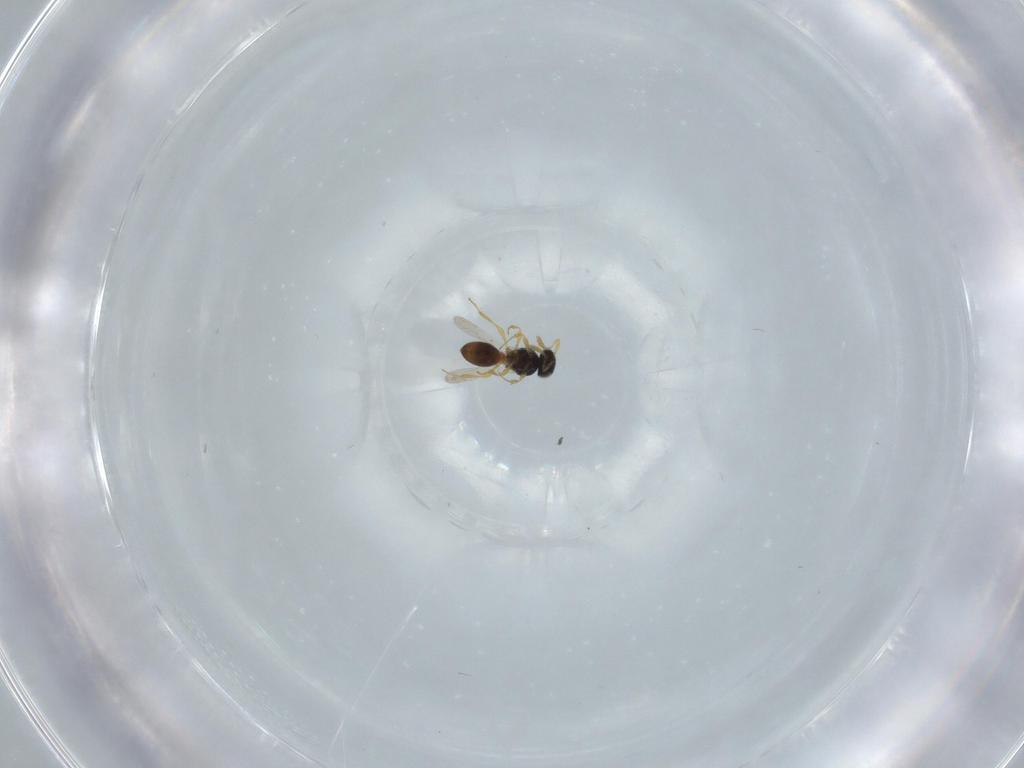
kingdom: Animalia
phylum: Arthropoda
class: Insecta
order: Hymenoptera
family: Platygastridae
